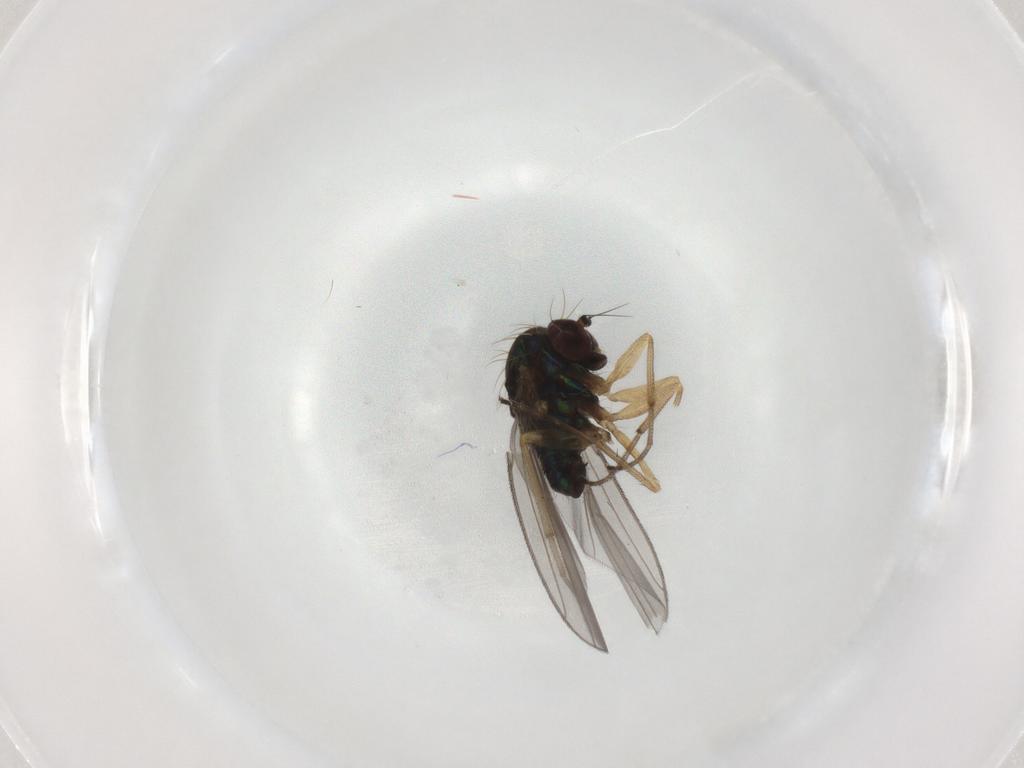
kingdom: Animalia
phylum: Arthropoda
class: Insecta
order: Diptera
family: Dolichopodidae
